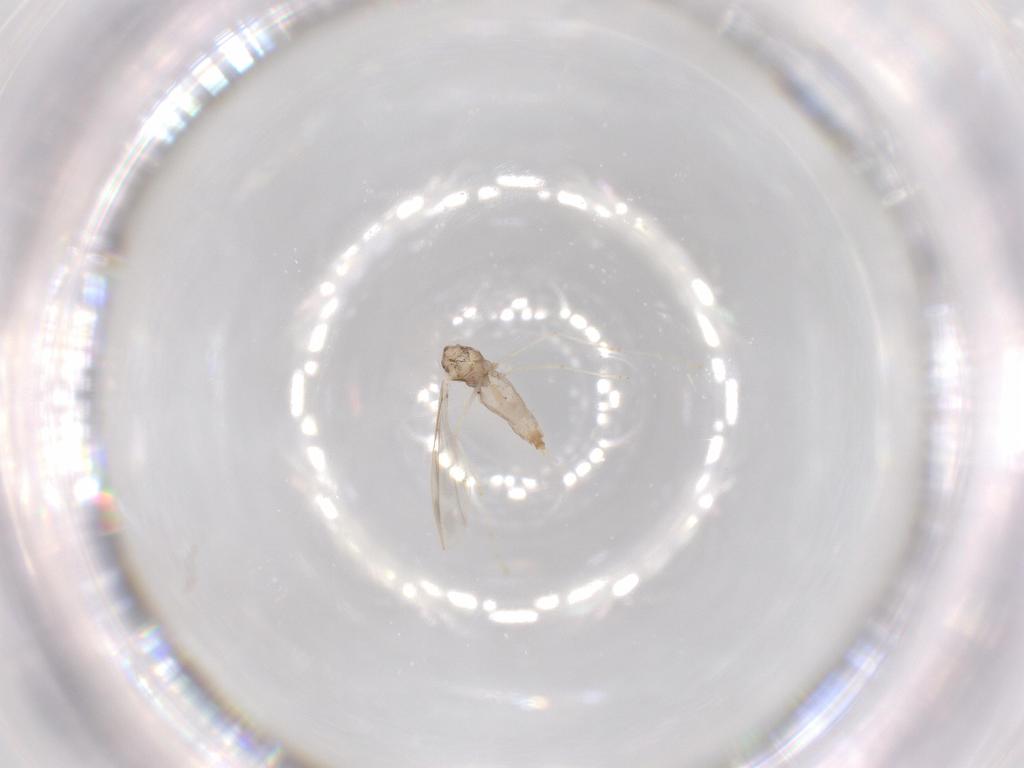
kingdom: Animalia
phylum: Arthropoda
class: Insecta
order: Diptera
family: Cecidomyiidae
